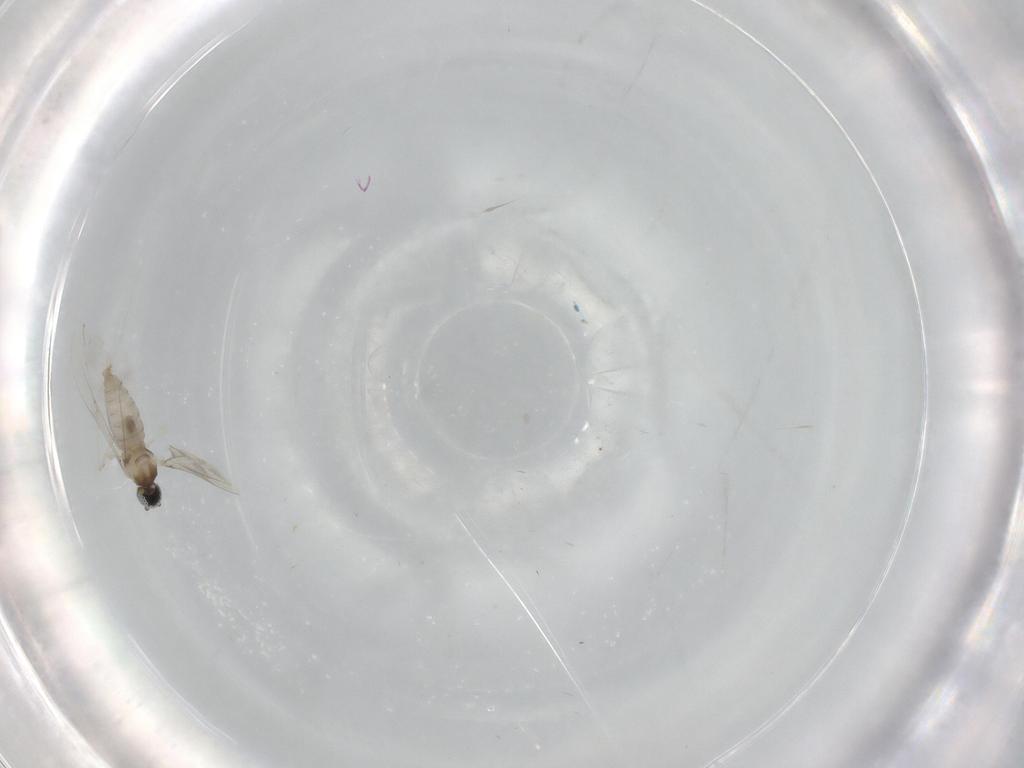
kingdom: Animalia
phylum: Arthropoda
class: Insecta
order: Diptera
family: Cecidomyiidae
